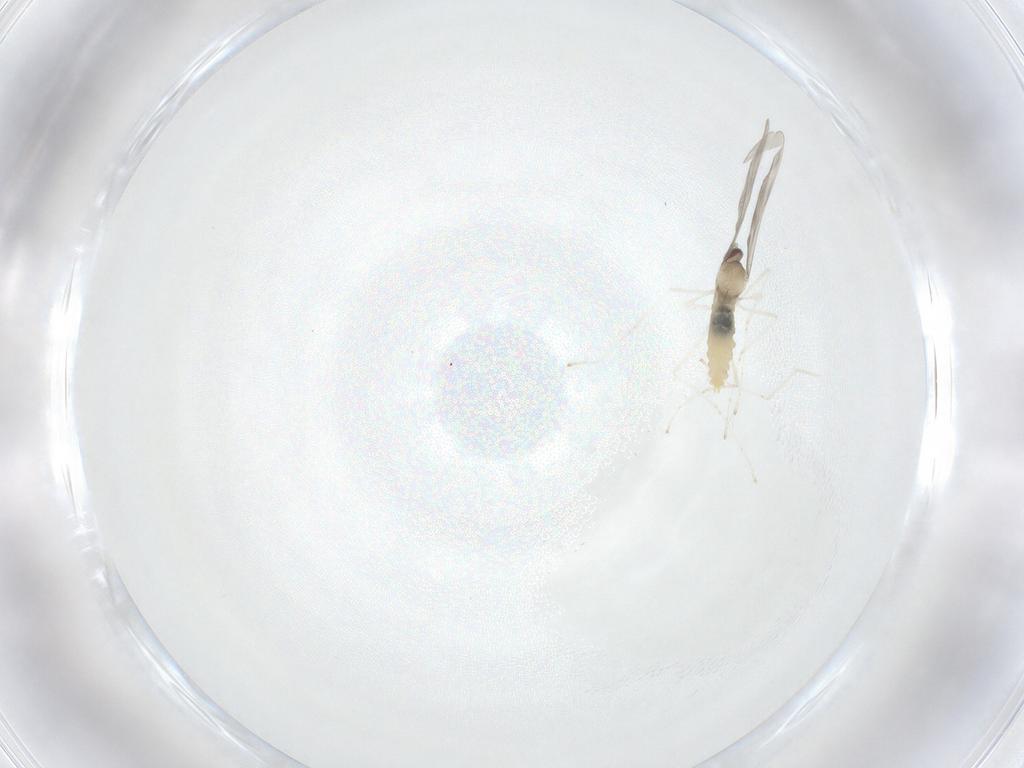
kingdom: Animalia
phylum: Arthropoda
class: Insecta
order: Diptera
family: Cecidomyiidae
